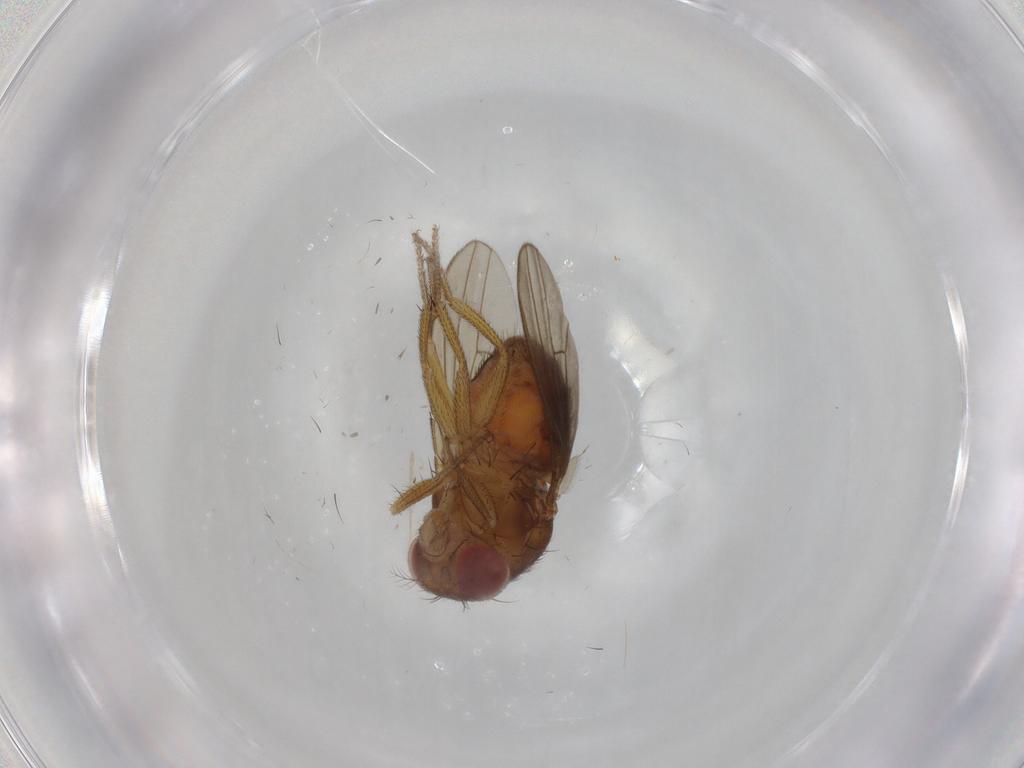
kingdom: Animalia
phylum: Arthropoda
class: Insecta
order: Diptera
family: Drosophilidae
